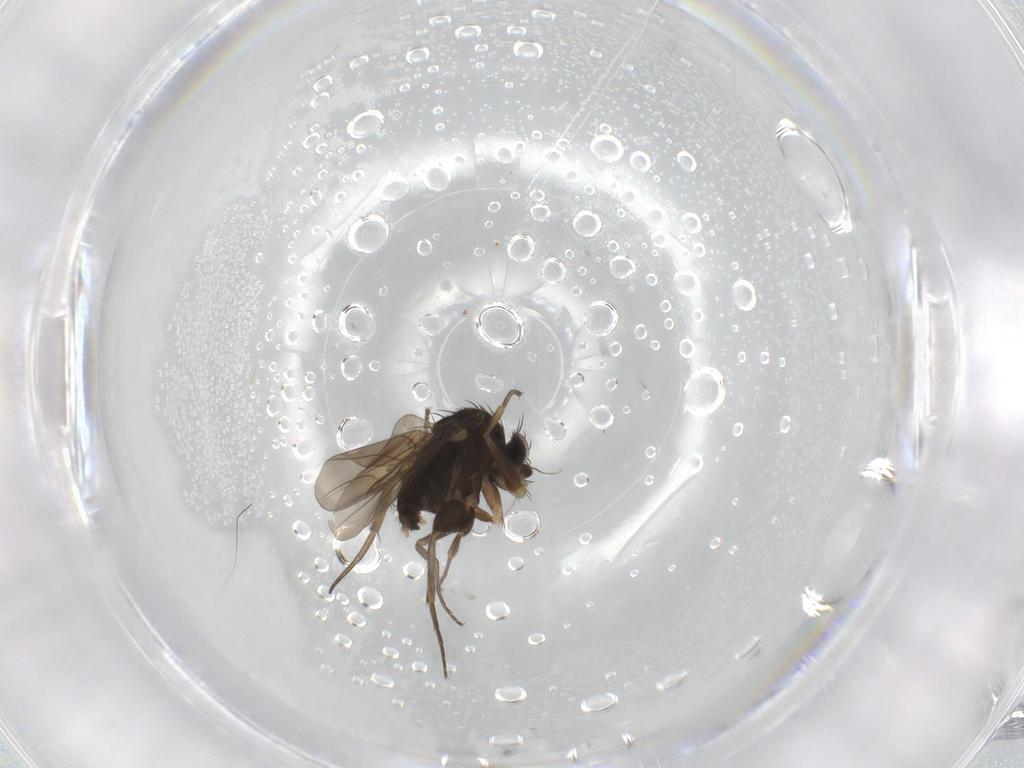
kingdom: Animalia
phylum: Arthropoda
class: Insecta
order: Diptera
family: Phoridae
